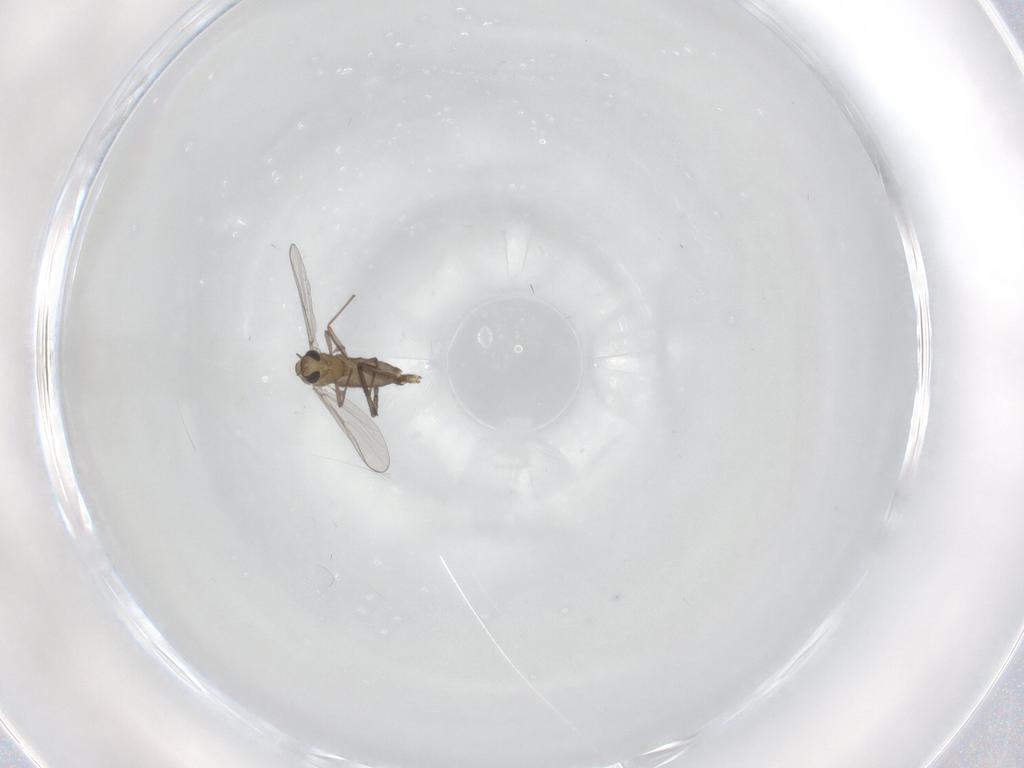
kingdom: Animalia
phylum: Arthropoda
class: Insecta
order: Diptera
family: Chironomidae
